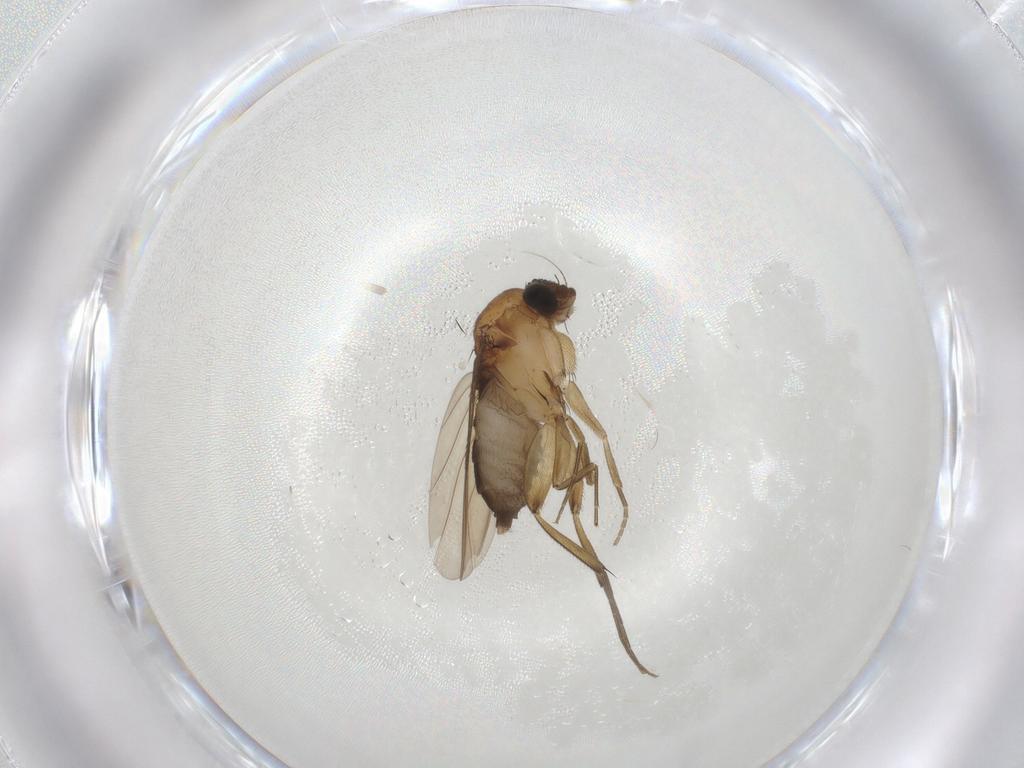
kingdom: Animalia
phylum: Arthropoda
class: Insecta
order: Diptera
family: Phoridae
